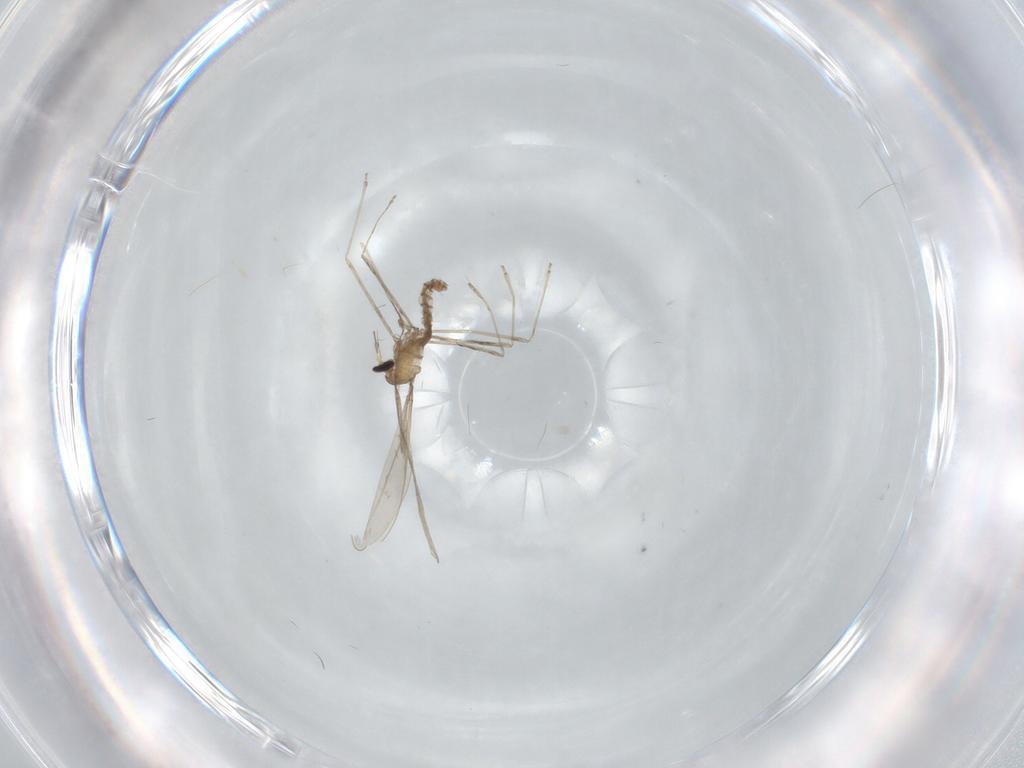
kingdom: Animalia
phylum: Arthropoda
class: Insecta
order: Diptera
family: Cecidomyiidae
